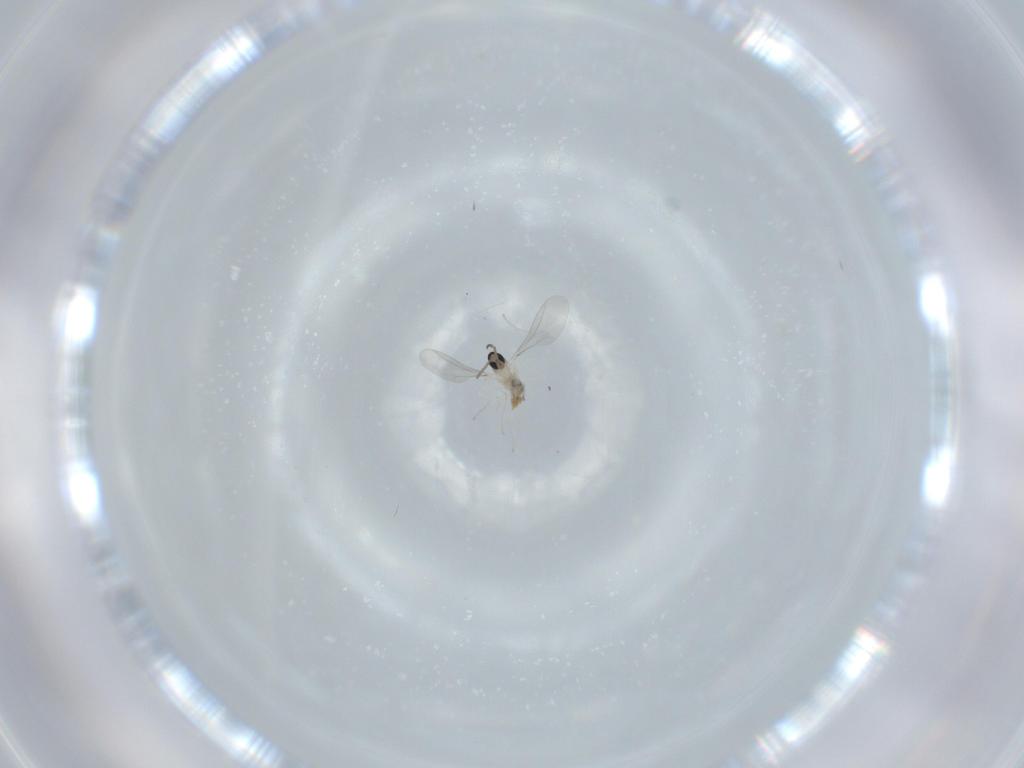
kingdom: Animalia
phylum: Arthropoda
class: Insecta
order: Diptera
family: Cecidomyiidae
